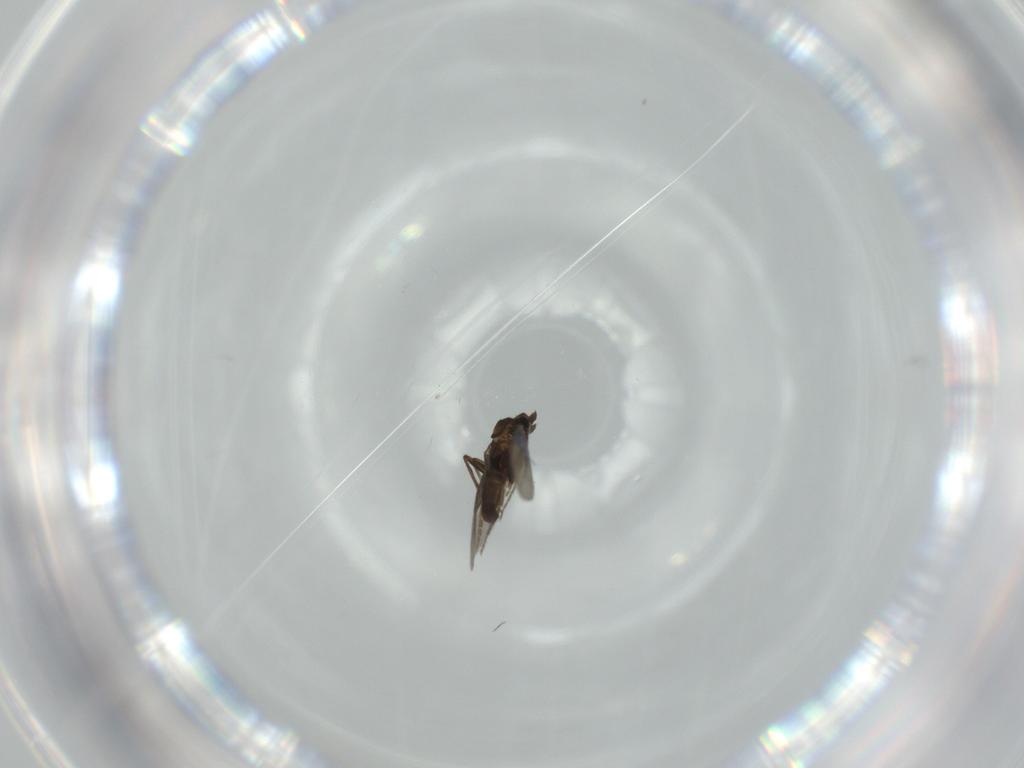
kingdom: Animalia
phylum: Arthropoda
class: Insecta
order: Diptera
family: Phoridae
